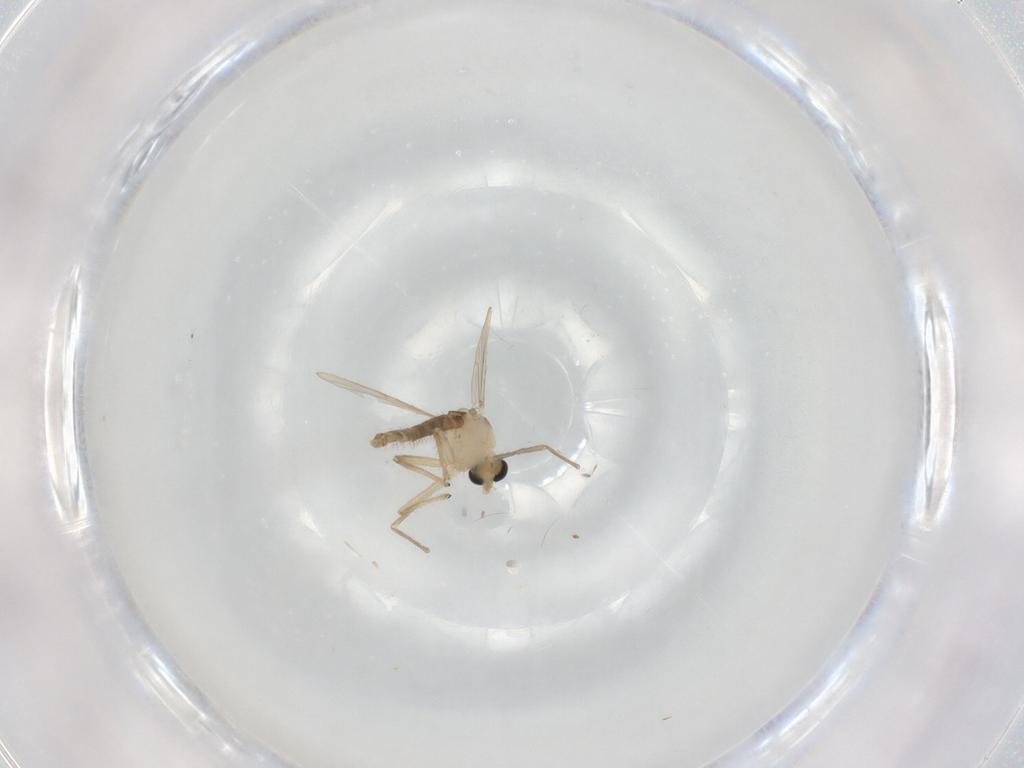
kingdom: Animalia
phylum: Arthropoda
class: Insecta
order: Diptera
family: Chironomidae
